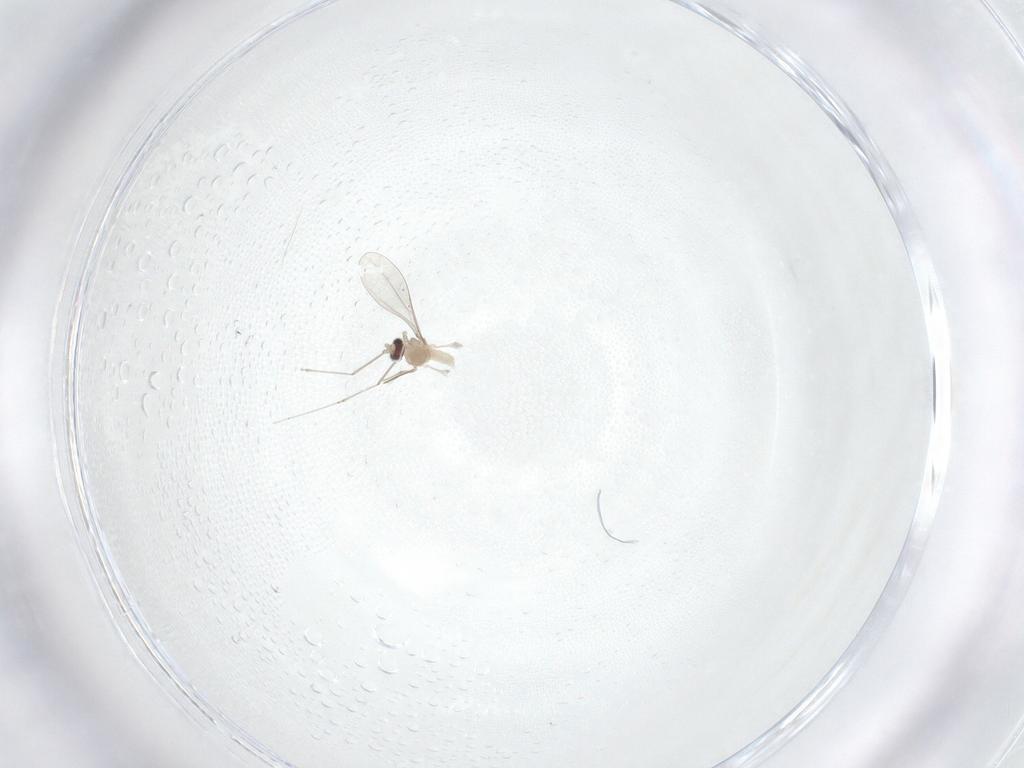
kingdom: Animalia
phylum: Arthropoda
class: Insecta
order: Diptera
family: Cecidomyiidae
